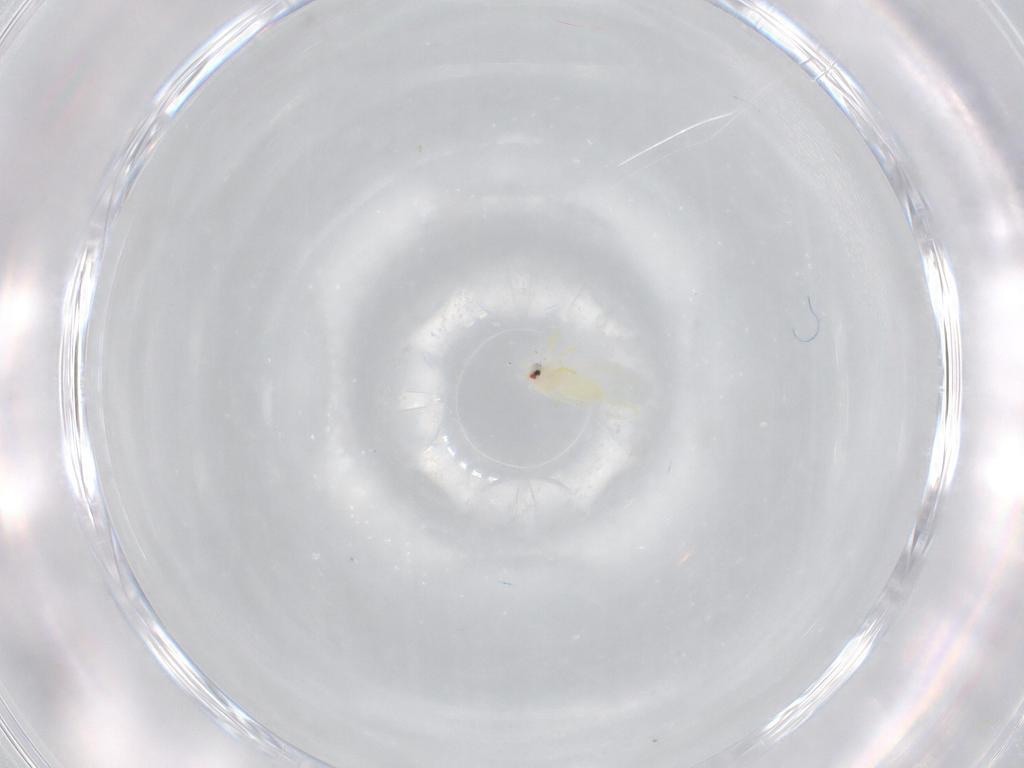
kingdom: Animalia
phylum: Arthropoda
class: Insecta
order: Hemiptera
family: Aleyrodidae
